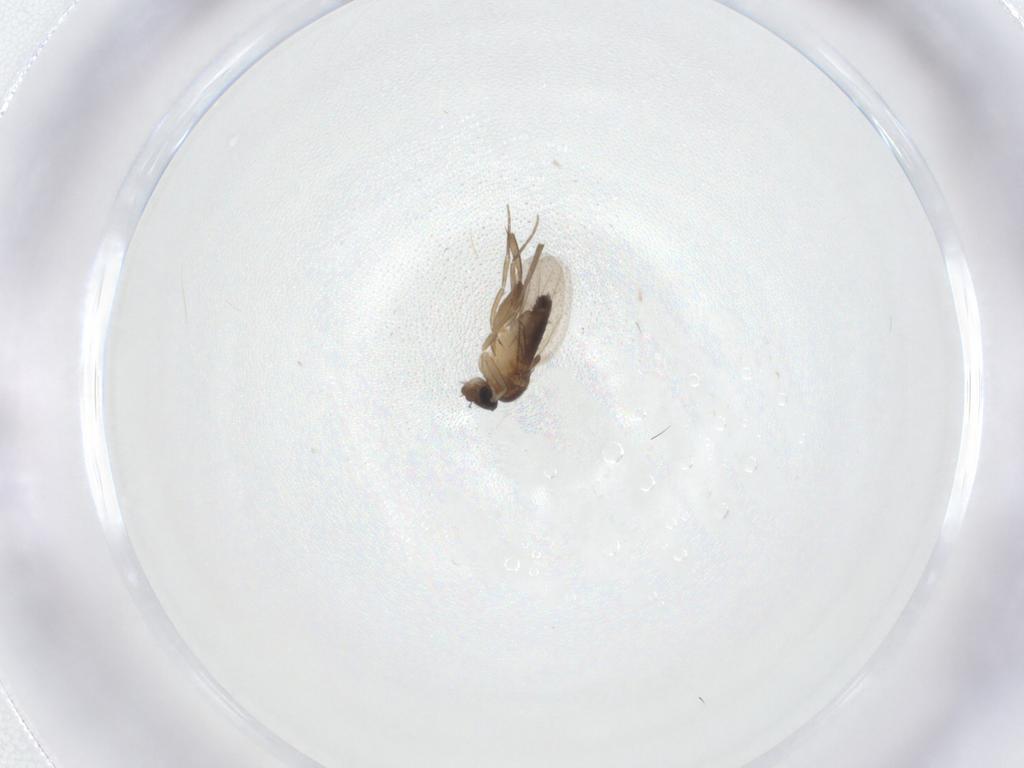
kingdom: Animalia
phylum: Arthropoda
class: Insecta
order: Diptera
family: Phoridae
